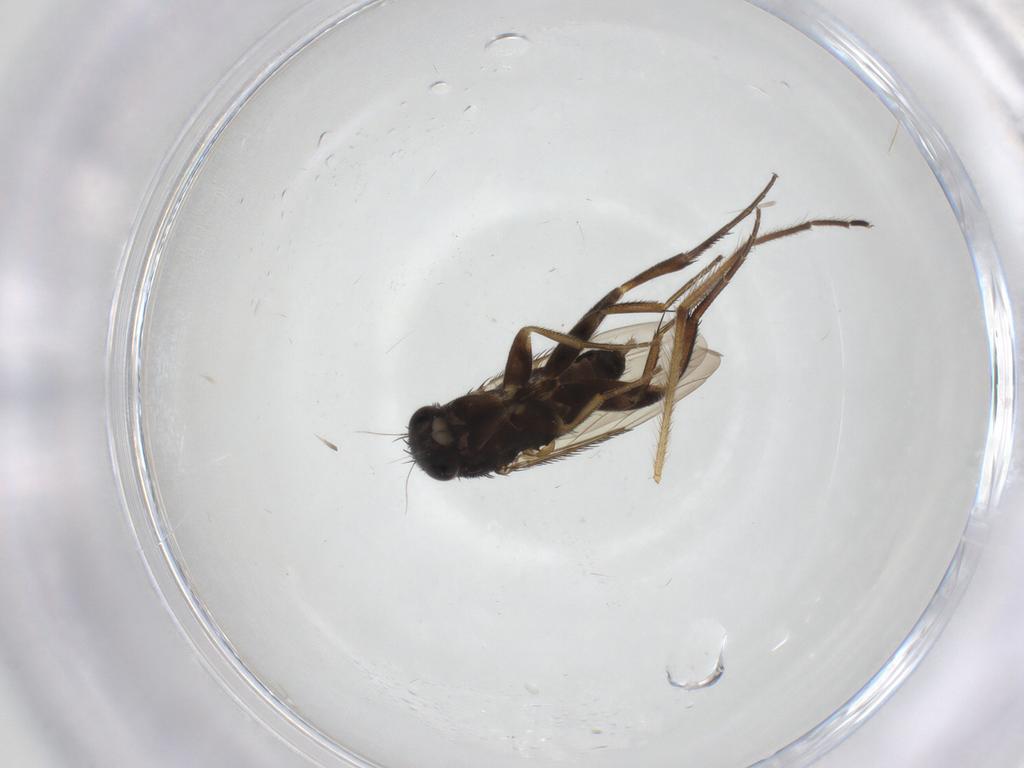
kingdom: Animalia
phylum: Arthropoda
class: Insecta
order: Diptera
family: Phoridae
